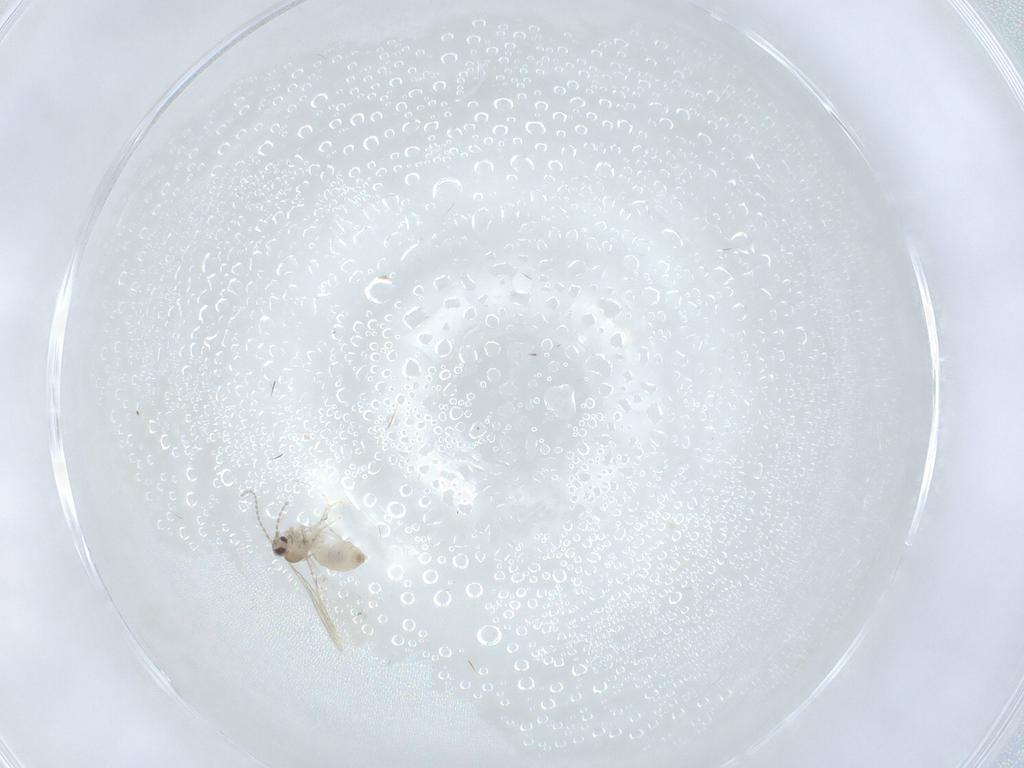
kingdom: Animalia
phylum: Arthropoda
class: Insecta
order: Diptera
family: Cecidomyiidae
